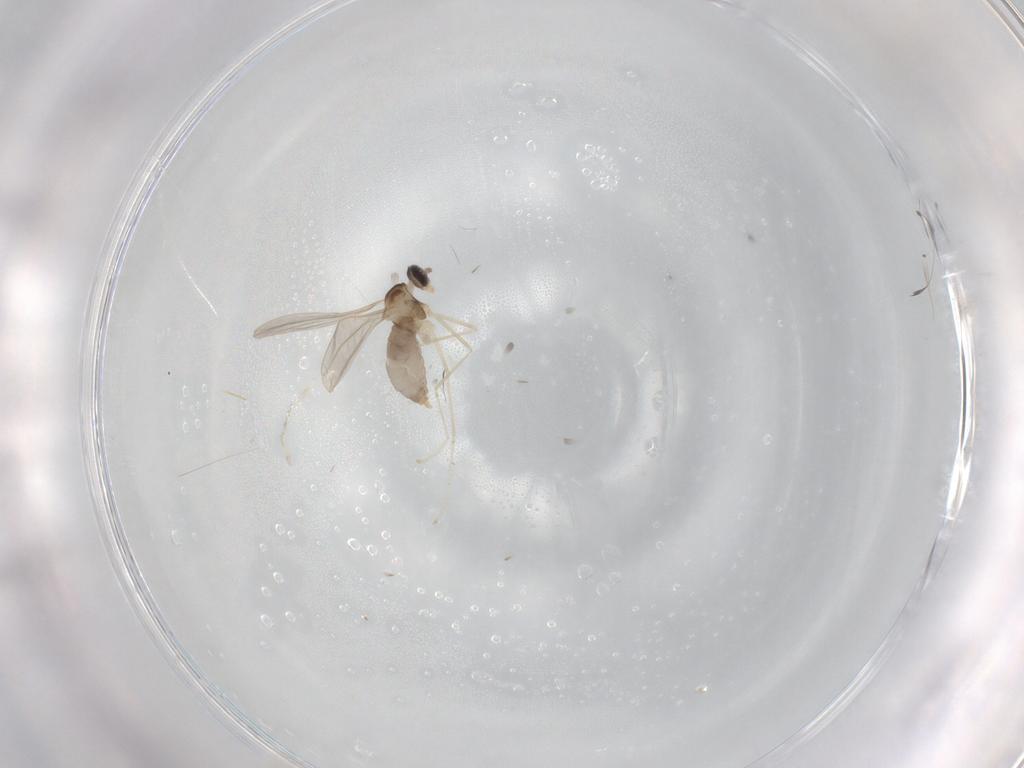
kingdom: Animalia
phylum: Arthropoda
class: Insecta
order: Diptera
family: Cecidomyiidae
